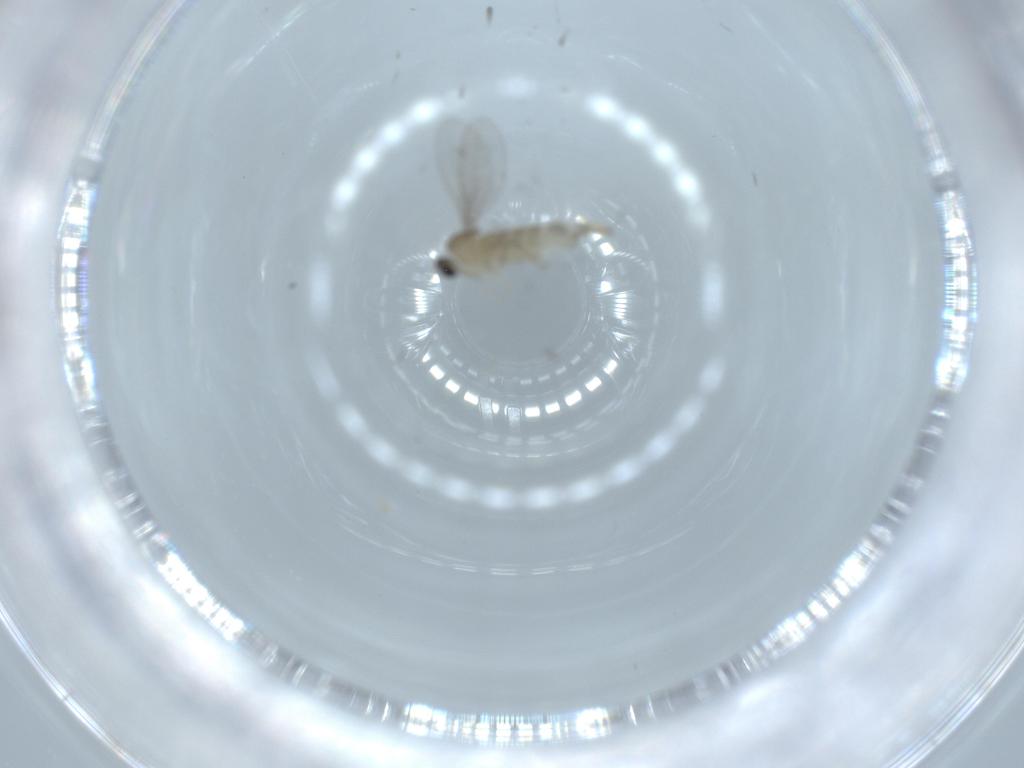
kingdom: Animalia
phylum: Arthropoda
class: Insecta
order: Diptera
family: Cecidomyiidae
